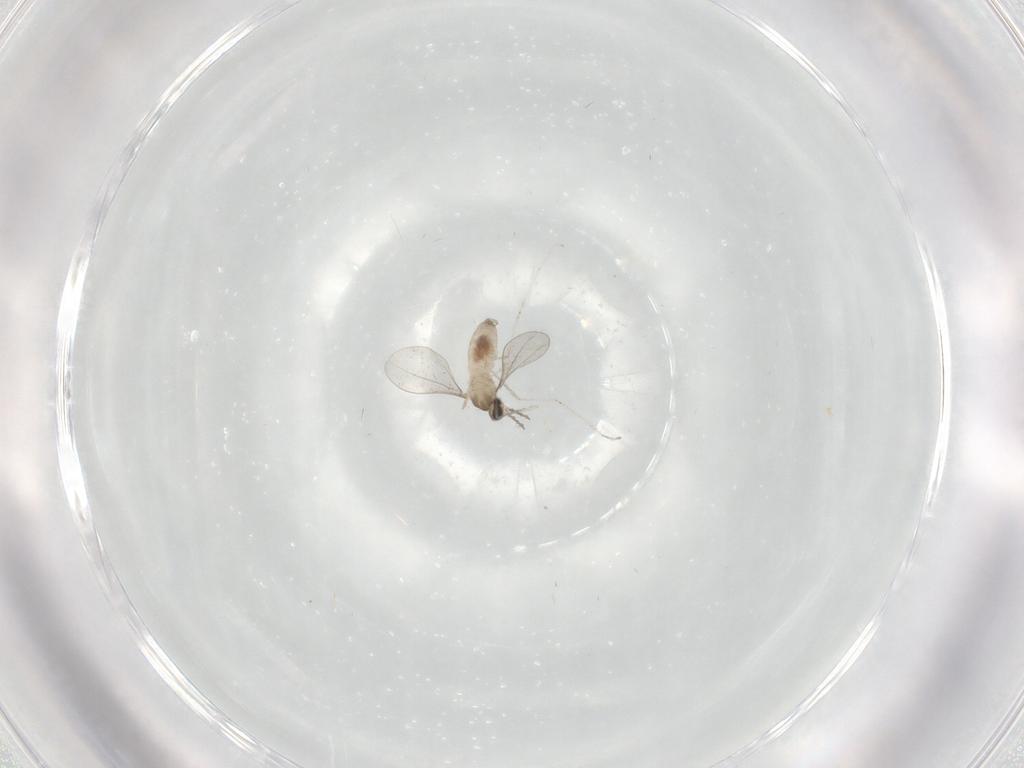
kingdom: Animalia
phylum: Arthropoda
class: Insecta
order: Diptera
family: Cecidomyiidae
